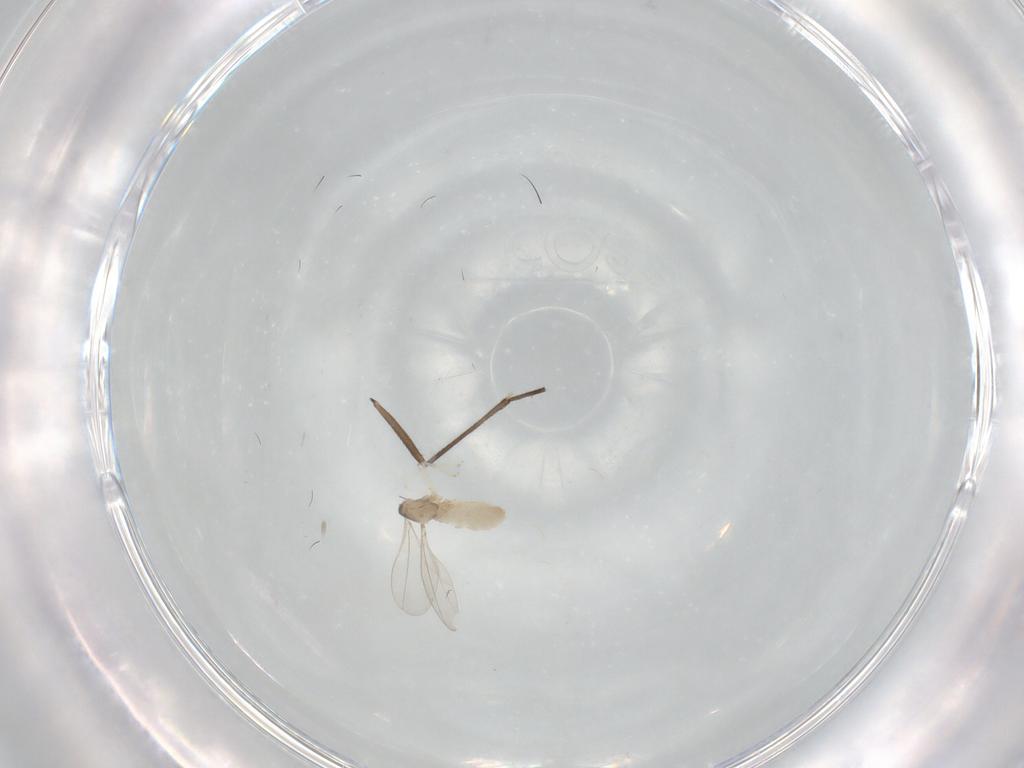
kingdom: Animalia
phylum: Arthropoda
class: Insecta
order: Diptera
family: Cecidomyiidae
